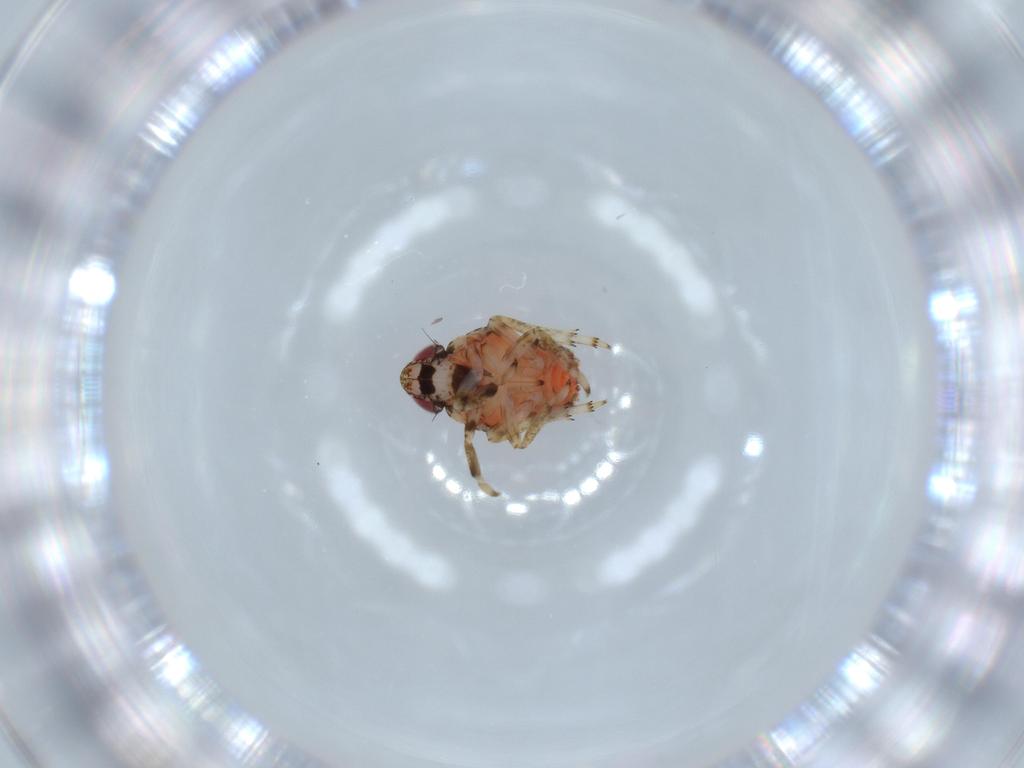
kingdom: Animalia
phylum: Arthropoda
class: Insecta
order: Hemiptera
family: Issidae
